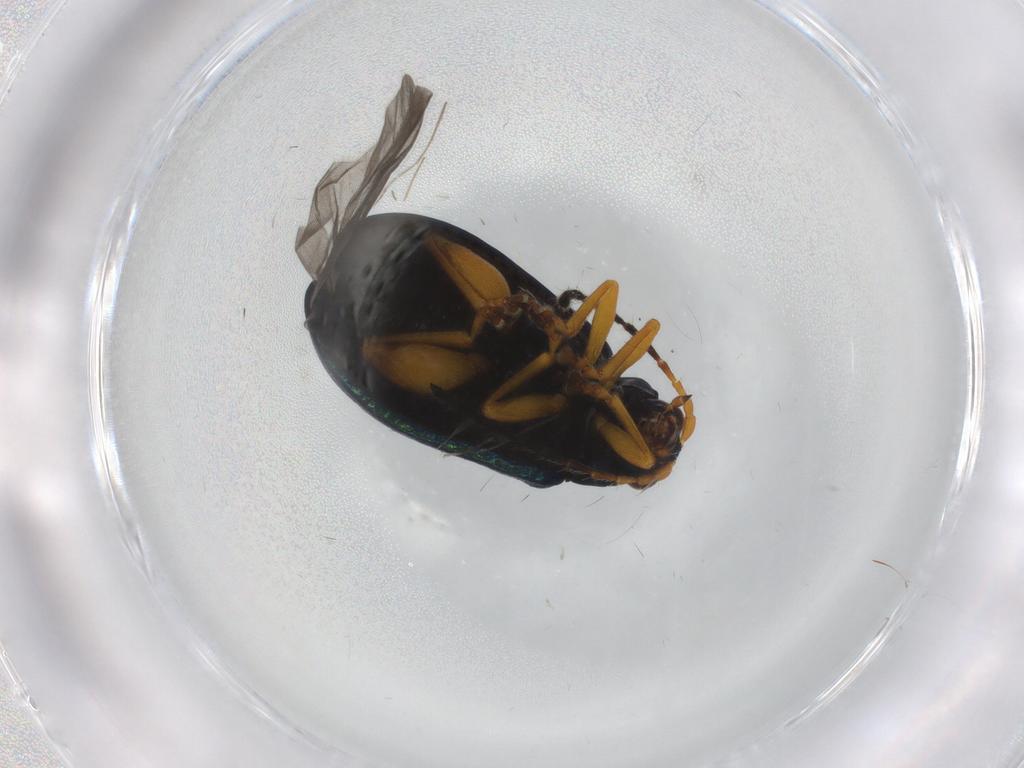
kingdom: Animalia
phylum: Arthropoda
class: Insecta
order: Coleoptera
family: Chrysomelidae
